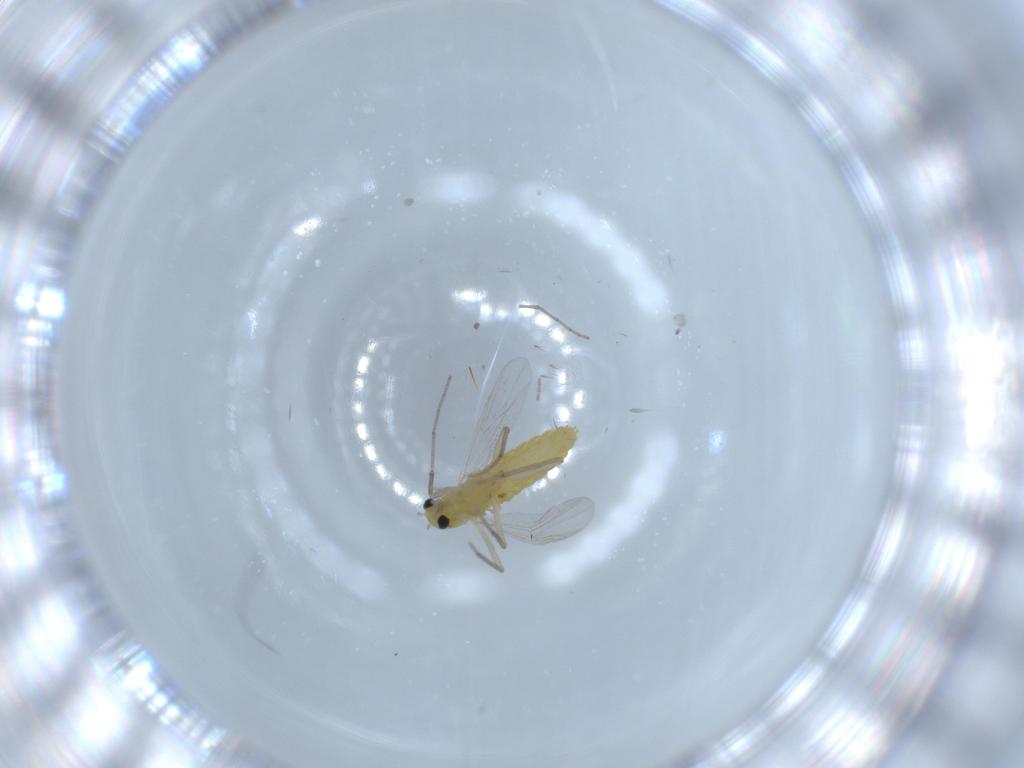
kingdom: Animalia
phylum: Arthropoda
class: Insecta
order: Diptera
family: Chironomidae
